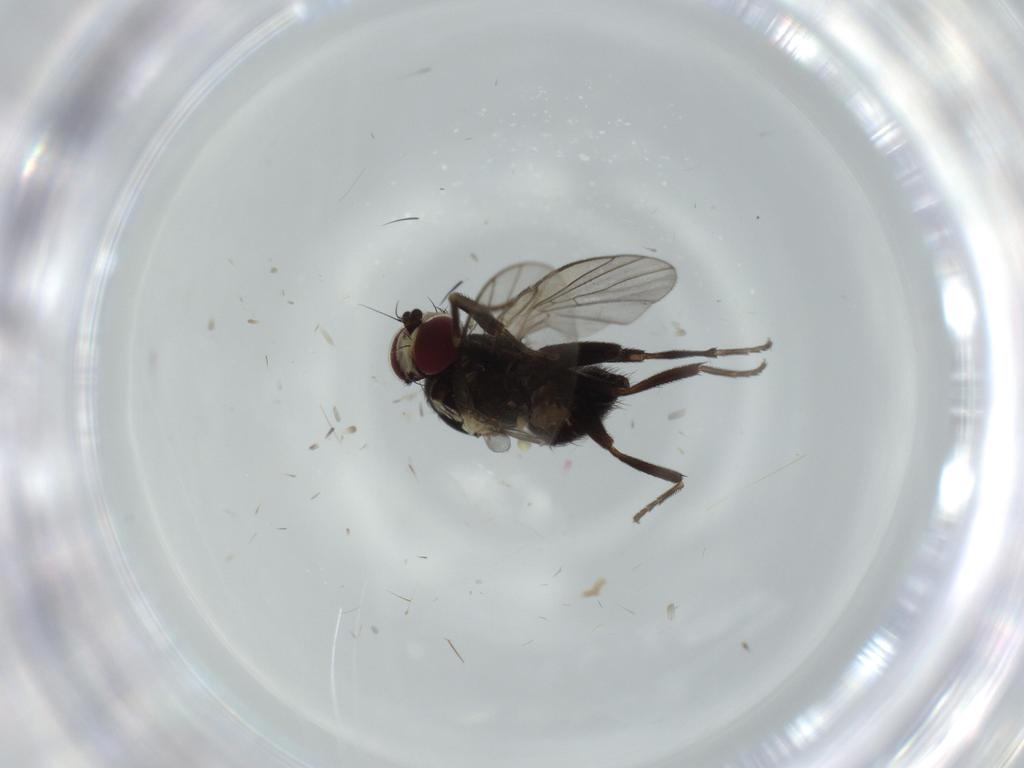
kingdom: Animalia
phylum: Arthropoda
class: Insecta
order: Diptera
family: Agromyzidae
